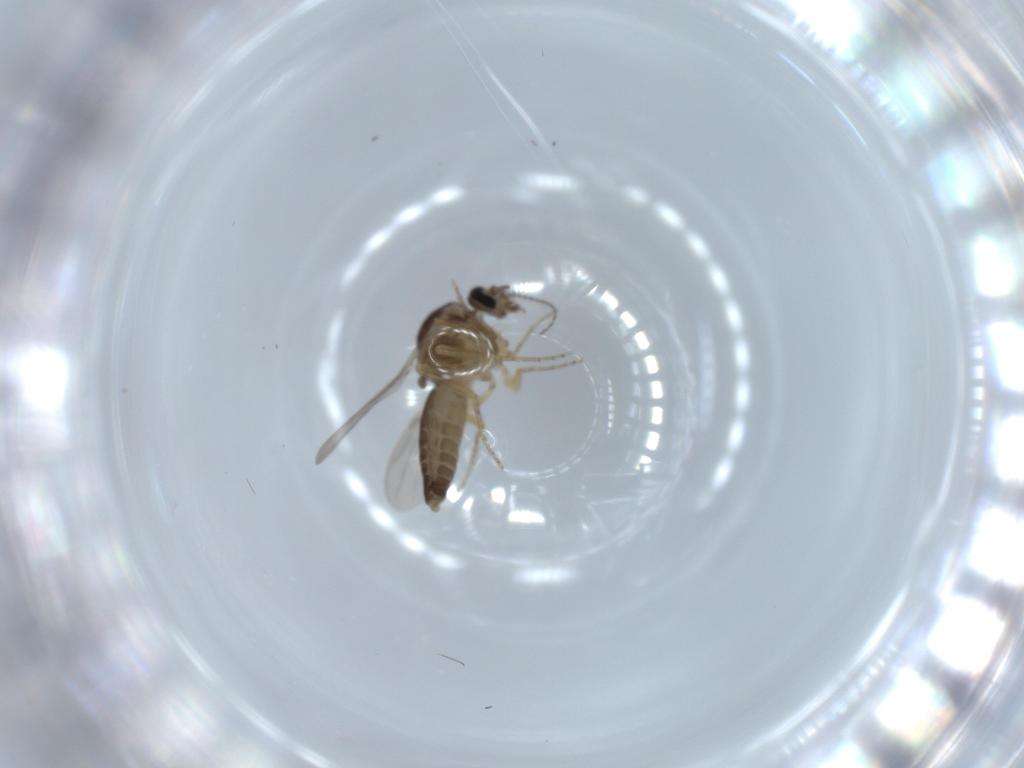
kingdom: Animalia
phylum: Arthropoda
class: Insecta
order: Diptera
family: Ceratopogonidae
